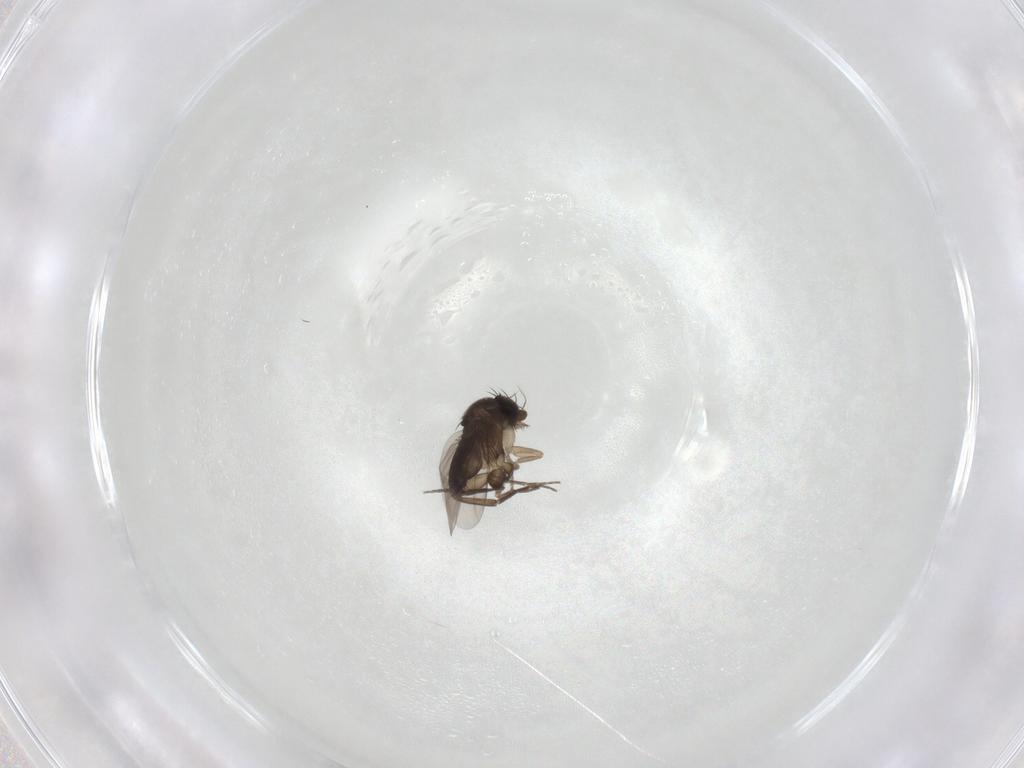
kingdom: Animalia
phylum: Arthropoda
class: Insecta
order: Diptera
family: Phoridae
